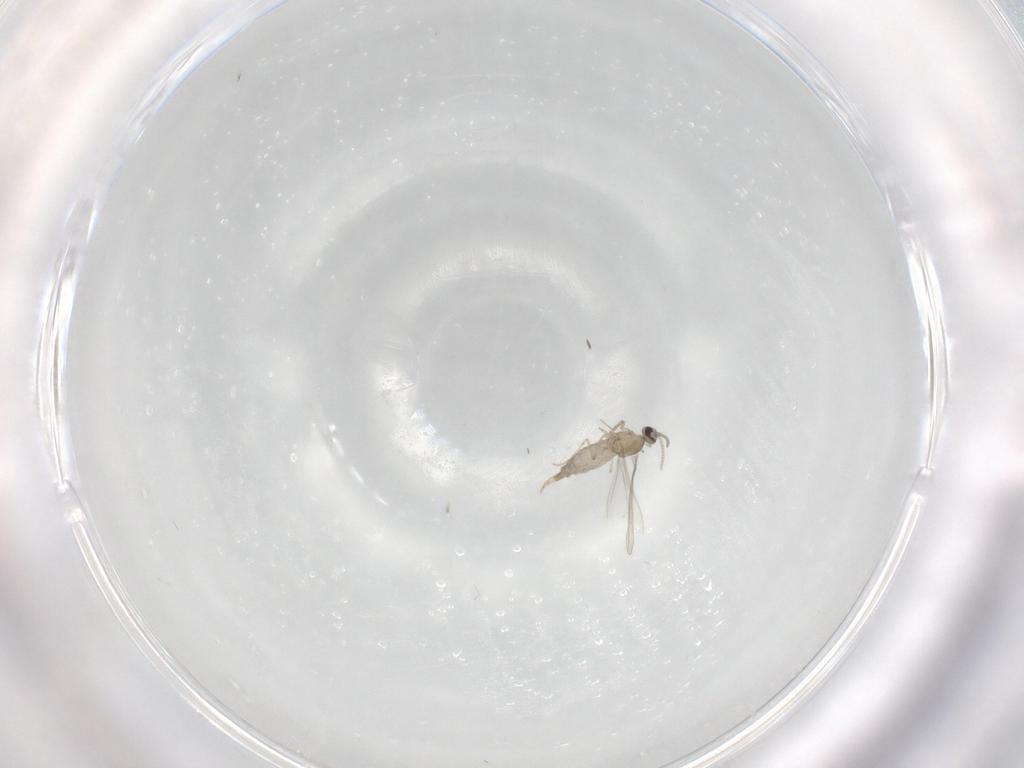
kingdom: Animalia
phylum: Arthropoda
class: Insecta
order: Diptera
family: Cecidomyiidae
